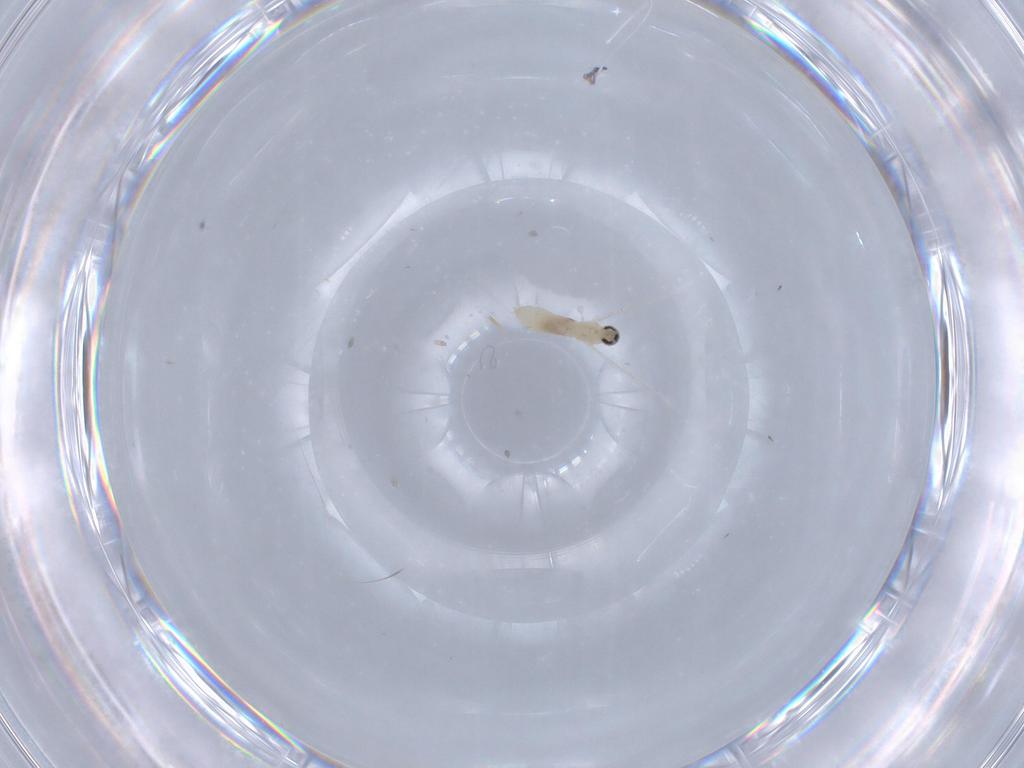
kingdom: Animalia
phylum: Arthropoda
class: Insecta
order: Diptera
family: Cecidomyiidae
